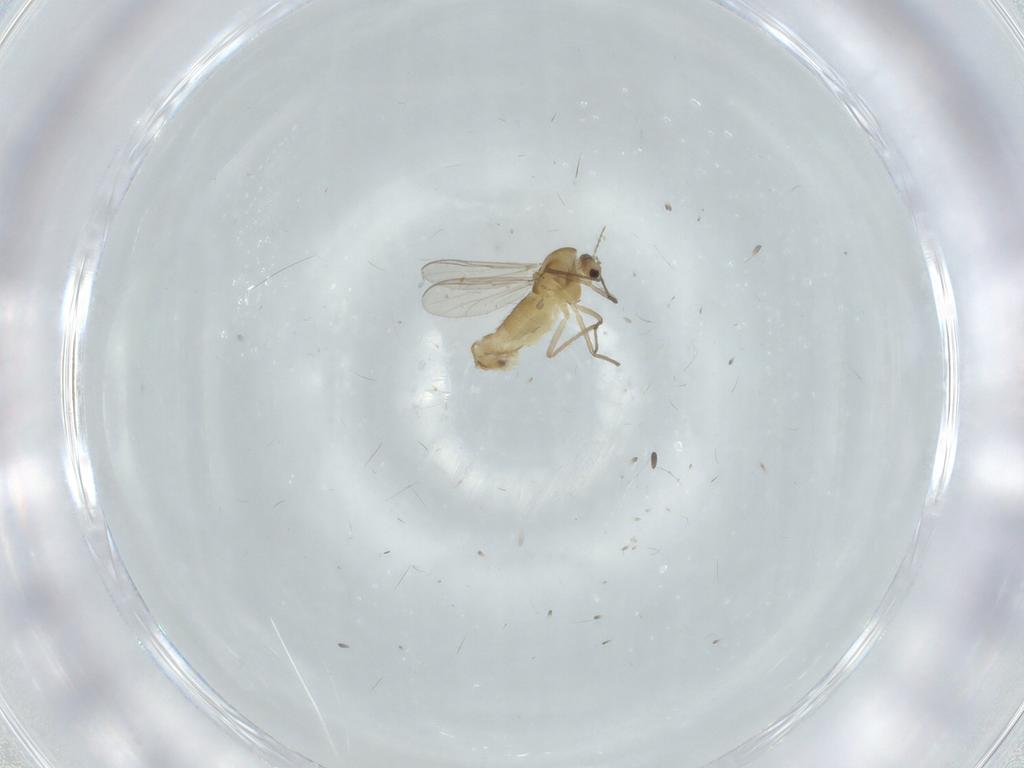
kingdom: Animalia
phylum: Arthropoda
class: Insecta
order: Diptera
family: Chironomidae
